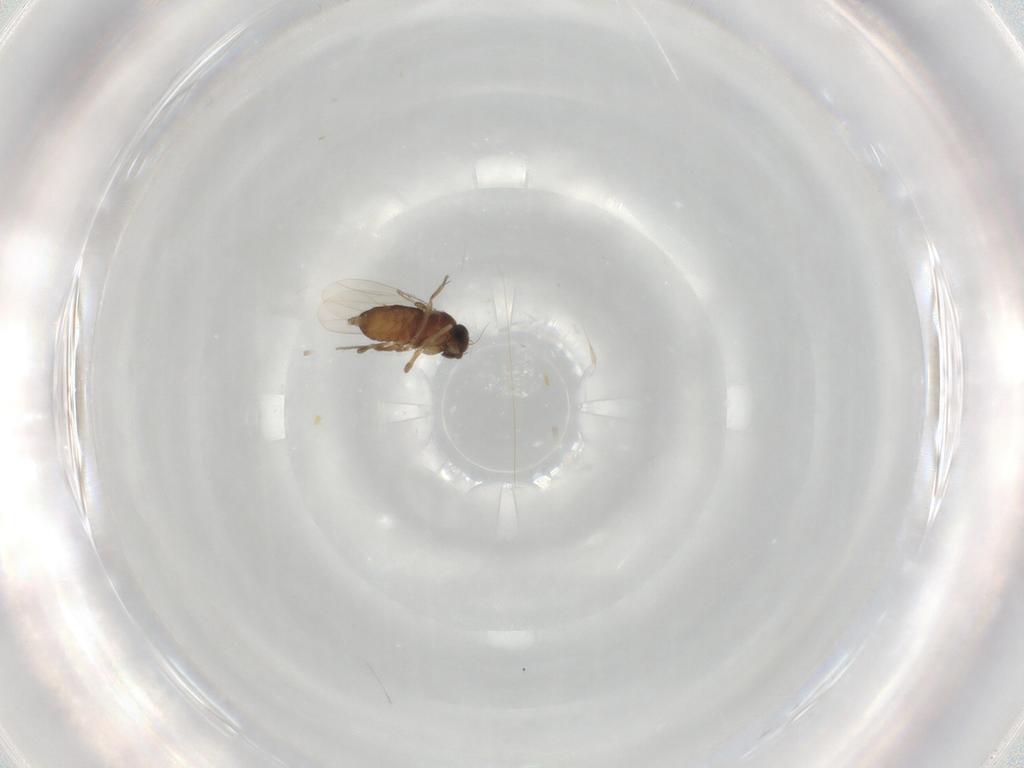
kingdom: Animalia
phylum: Arthropoda
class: Insecta
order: Diptera
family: Phoridae
